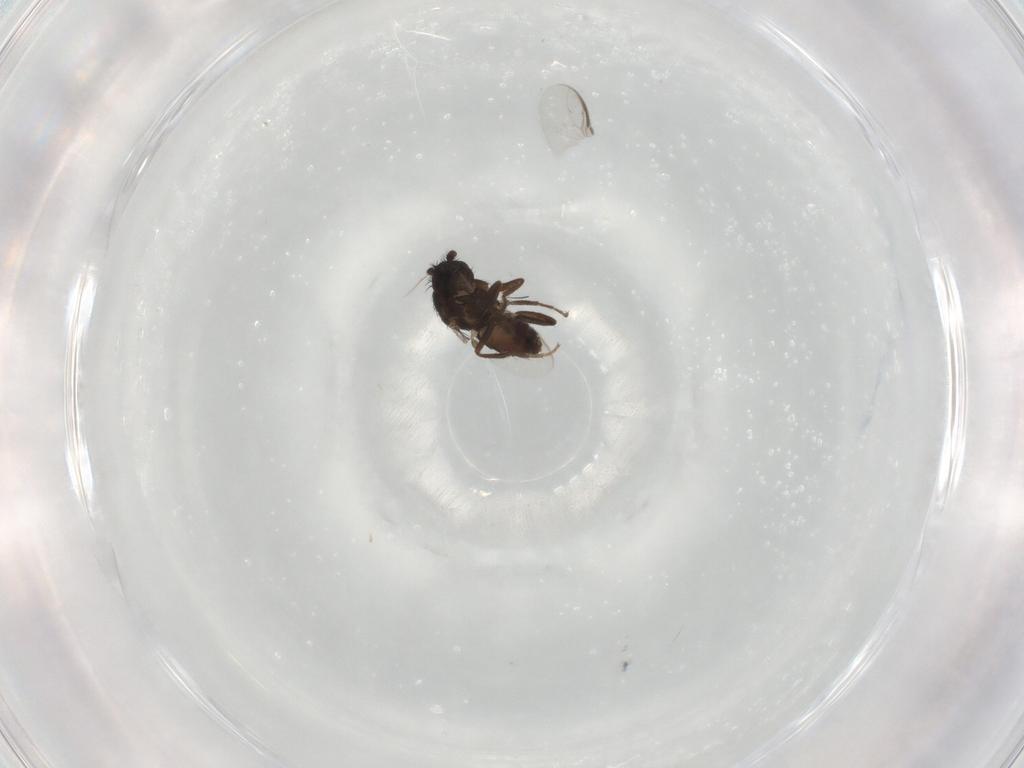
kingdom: Animalia
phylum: Arthropoda
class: Insecta
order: Diptera
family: Sphaeroceridae
